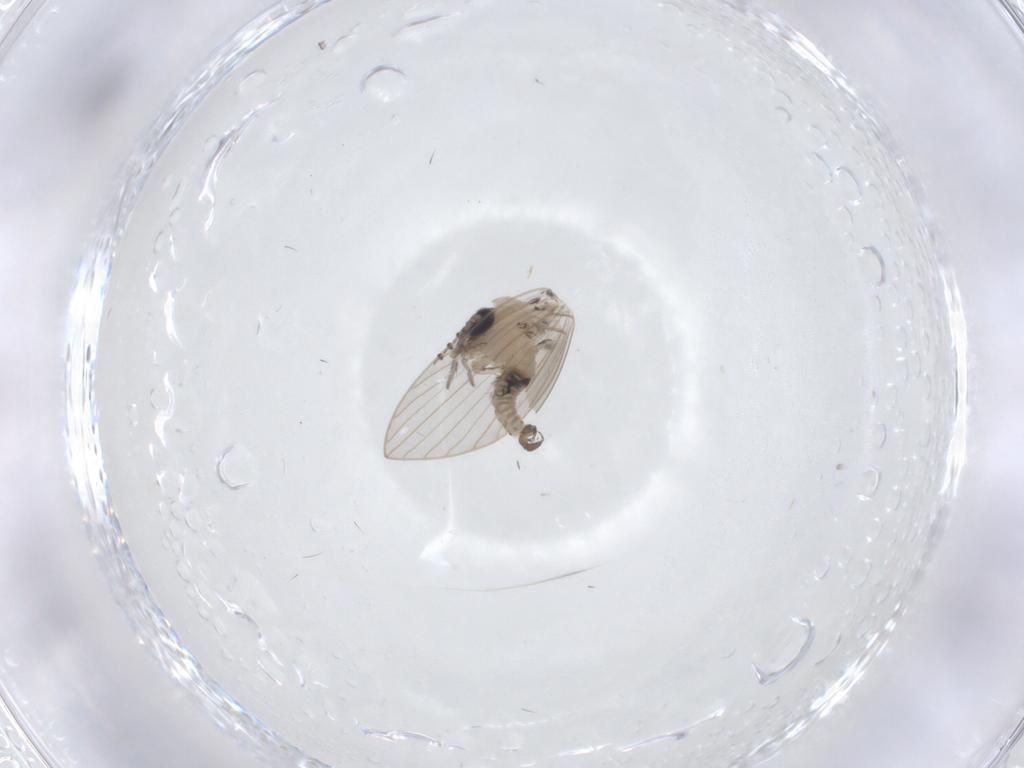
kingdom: Animalia
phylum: Arthropoda
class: Insecta
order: Diptera
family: Psychodidae
